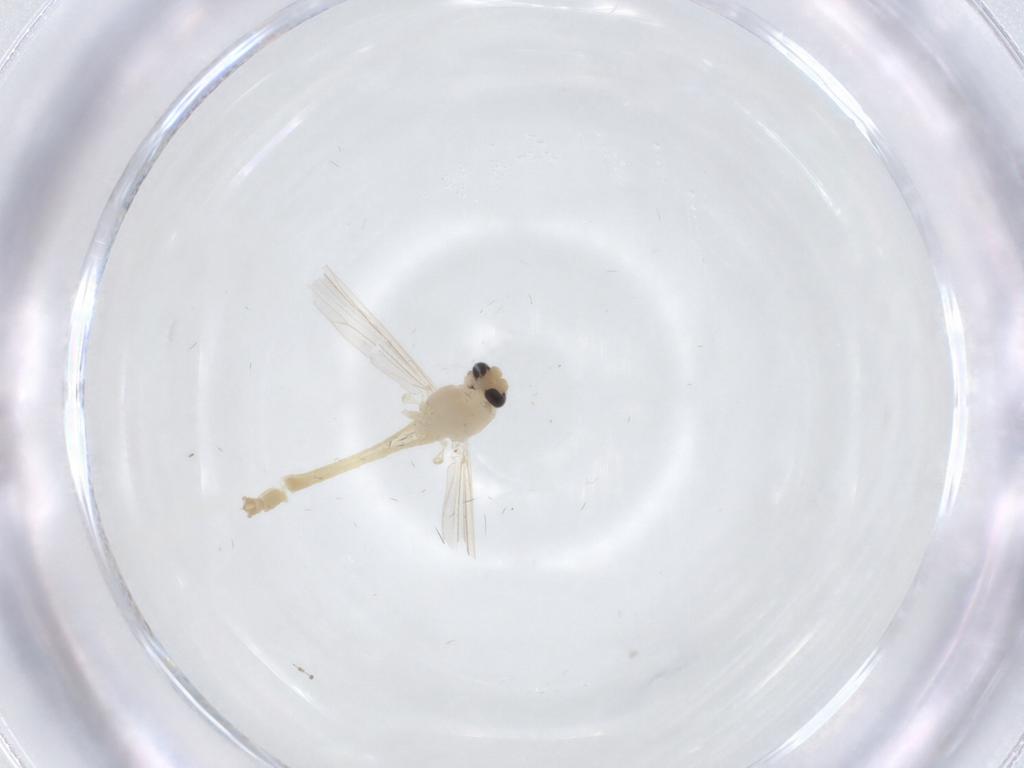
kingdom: Animalia
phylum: Arthropoda
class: Insecta
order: Diptera
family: Chironomidae
